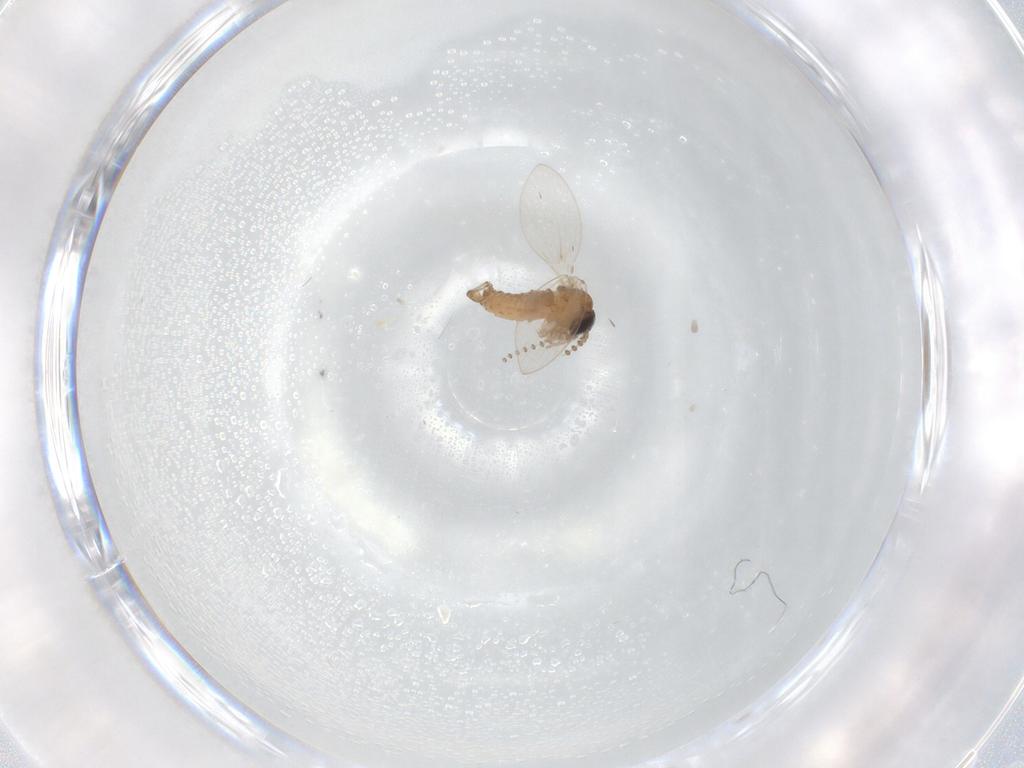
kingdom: Animalia
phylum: Arthropoda
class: Insecta
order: Diptera
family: Psychodidae
